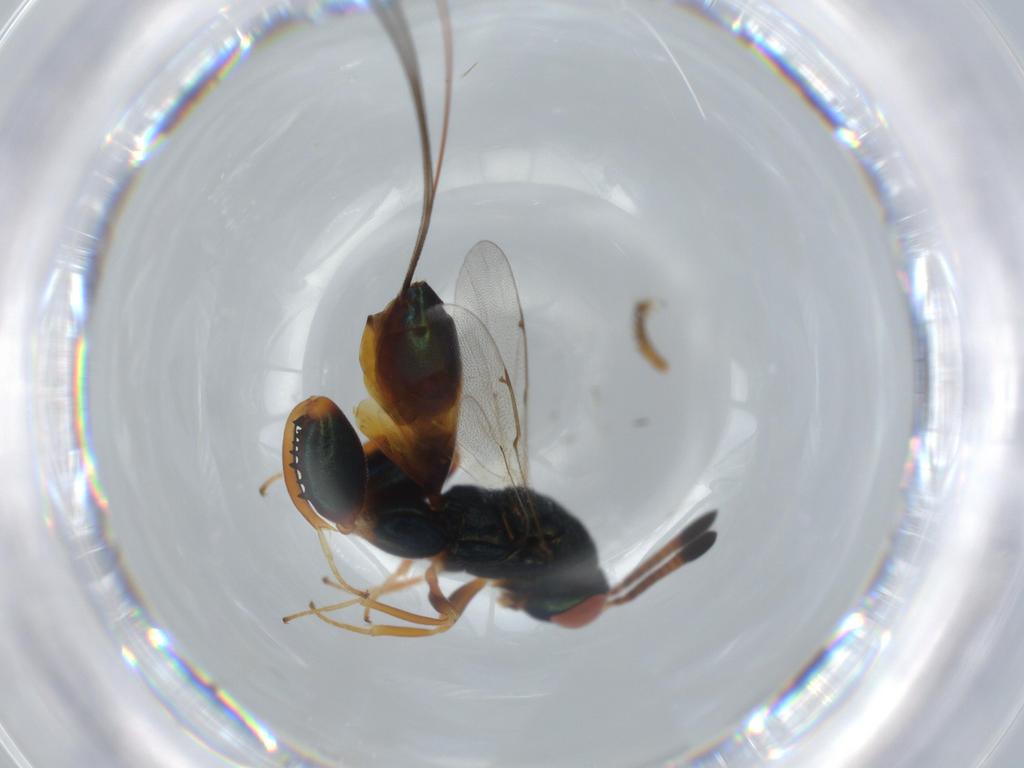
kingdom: Animalia
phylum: Arthropoda
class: Insecta
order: Hymenoptera
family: Torymidae
